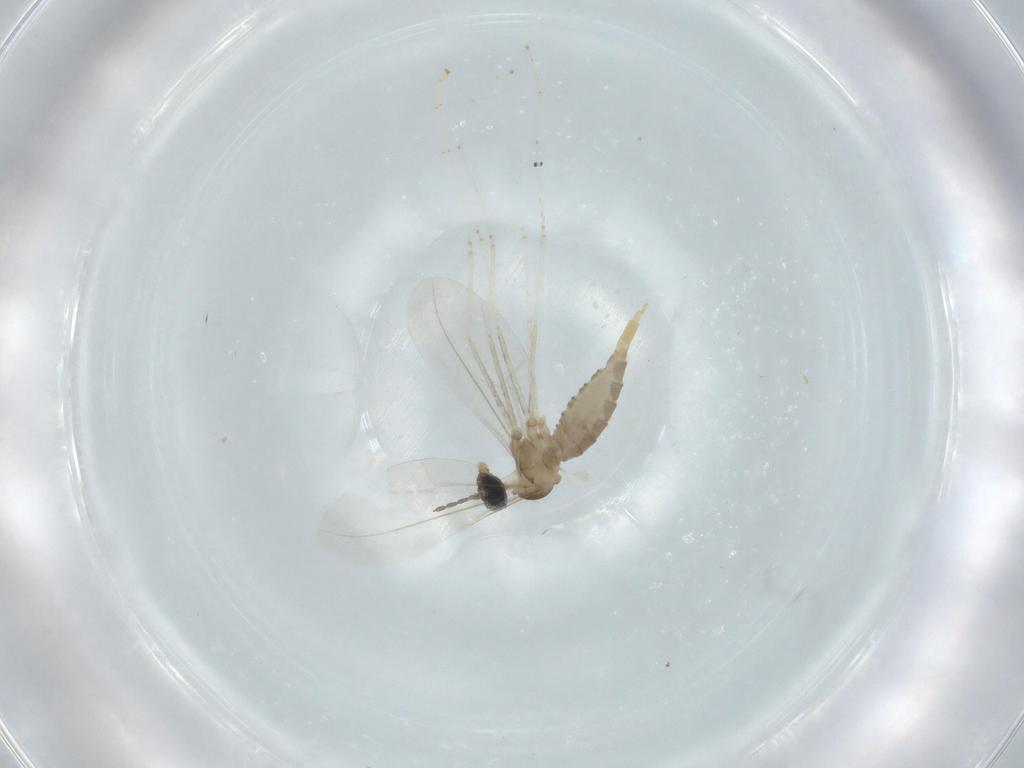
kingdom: Animalia
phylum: Arthropoda
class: Insecta
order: Diptera
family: Cecidomyiidae
